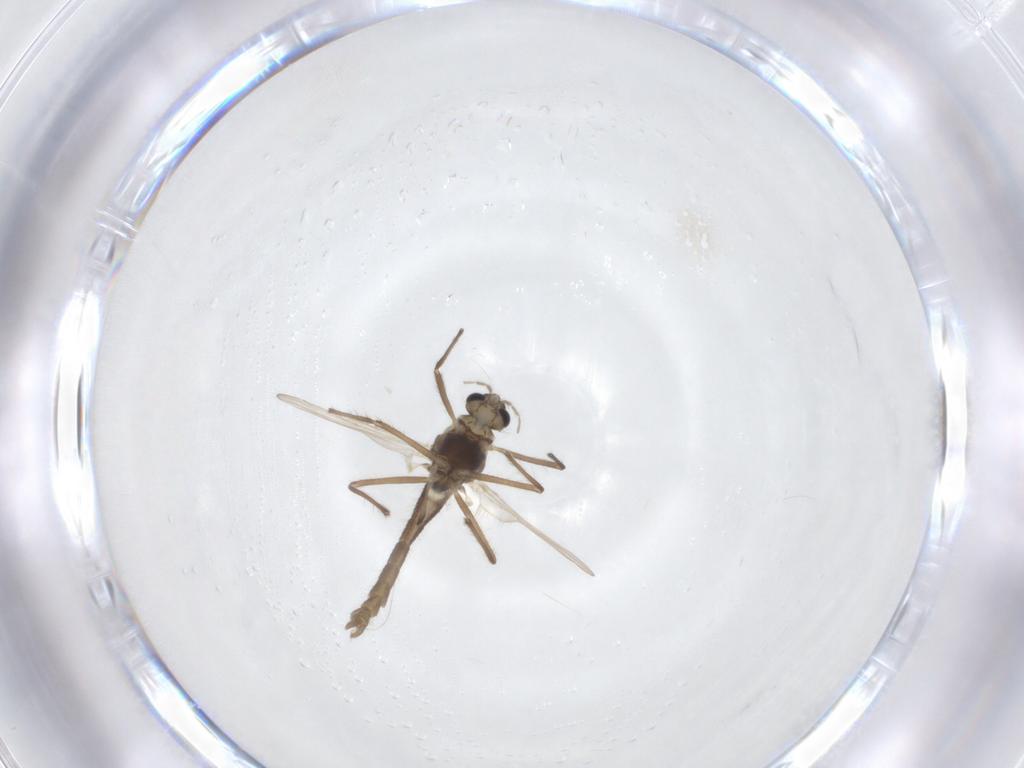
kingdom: Animalia
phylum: Arthropoda
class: Insecta
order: Diptera
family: Chironomidae
